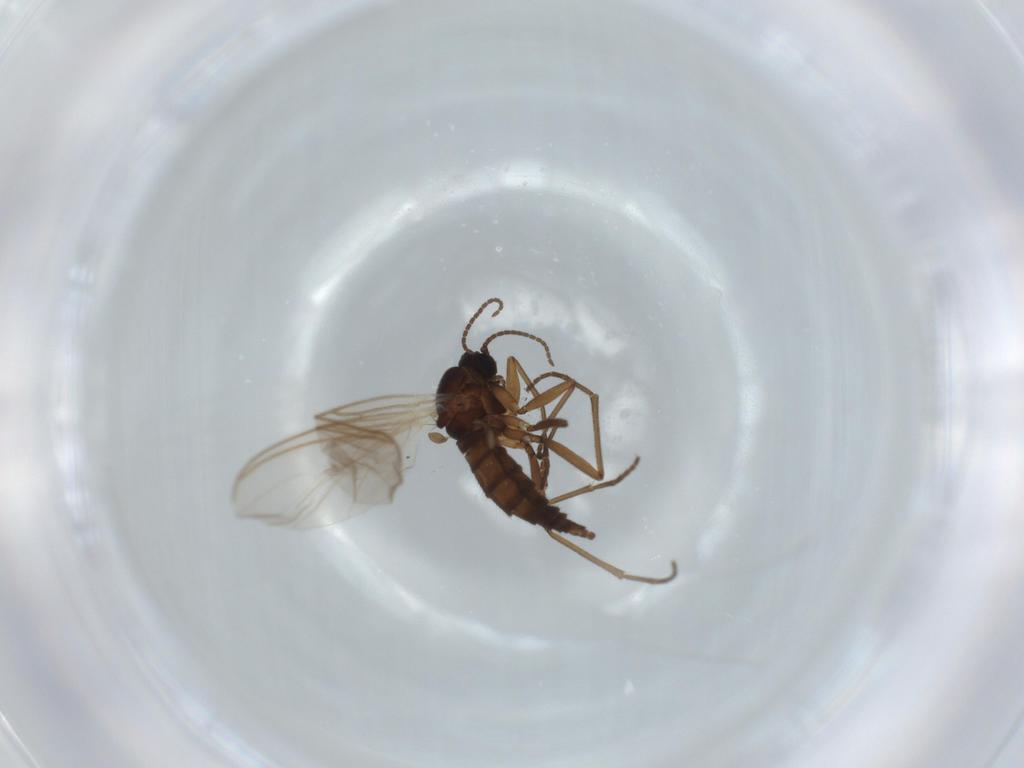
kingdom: Animalia
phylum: Arthropoda
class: Insecta
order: Diptera
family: Sciaridae
